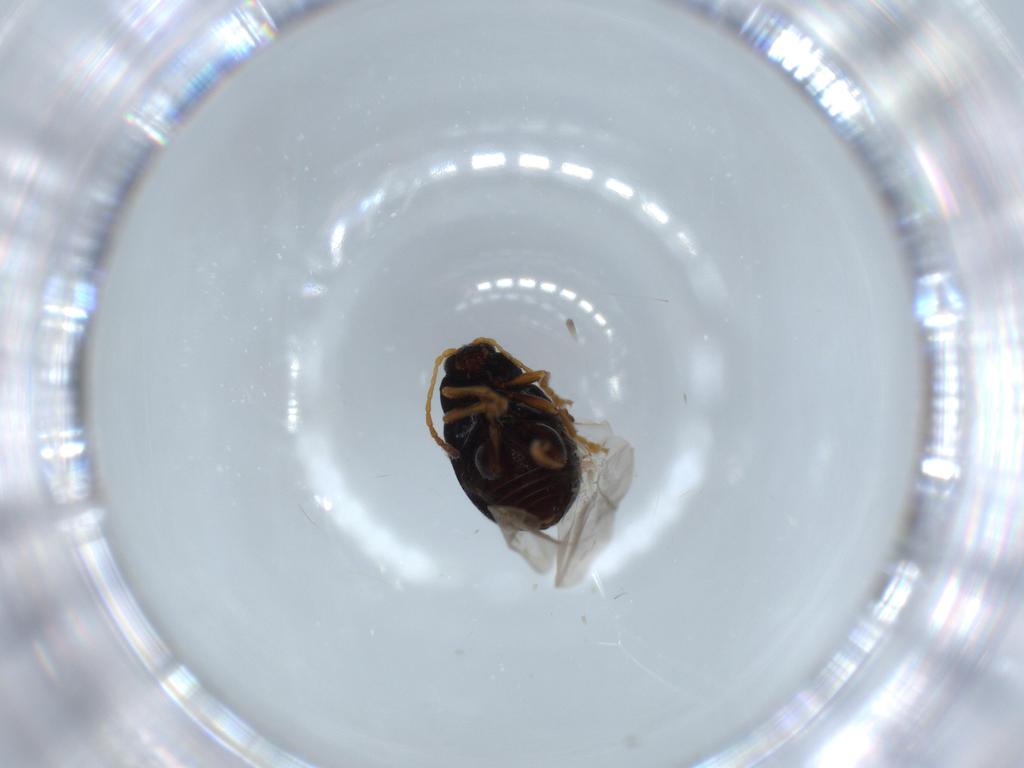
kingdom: Animalia
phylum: Arthropoda
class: Insecta
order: Coleoptera
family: Chrysomelidae
